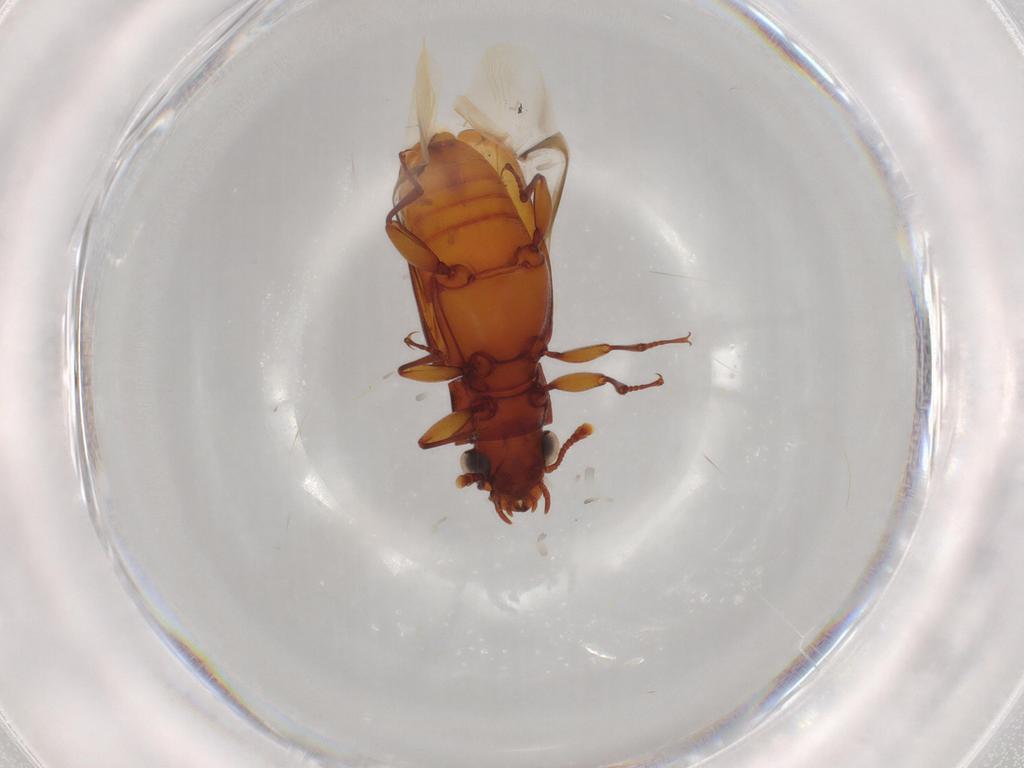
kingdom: Animalia
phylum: Arthropoda
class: Insecta
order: Coleoptera
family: Bostrichidae
